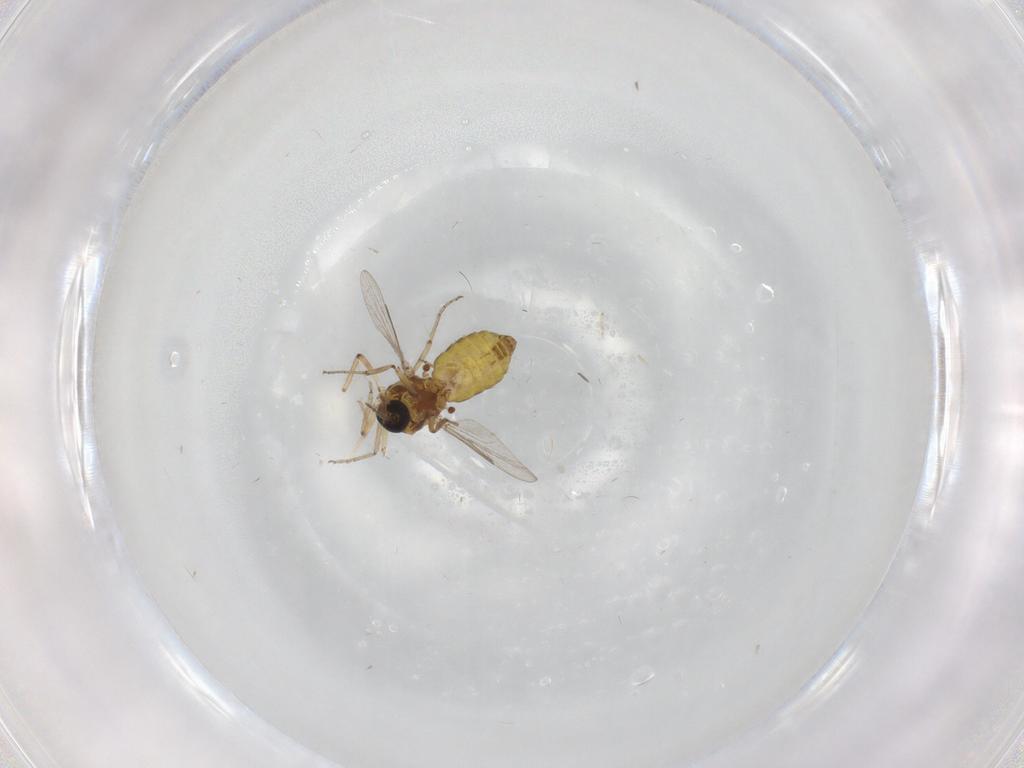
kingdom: Animalia
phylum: Arthropoda
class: Insecta
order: Diptera
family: Ceratopogonidae
